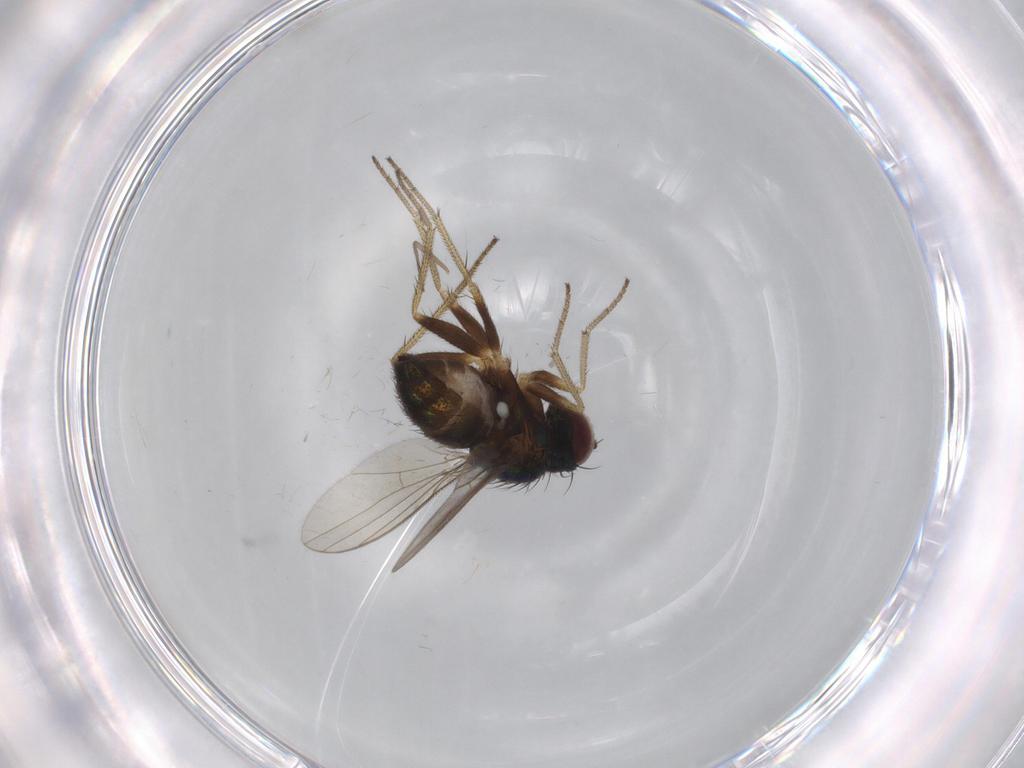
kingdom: Animalia
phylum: Arthropoda
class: Insecta
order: Diptera
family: Dolichopodidae
